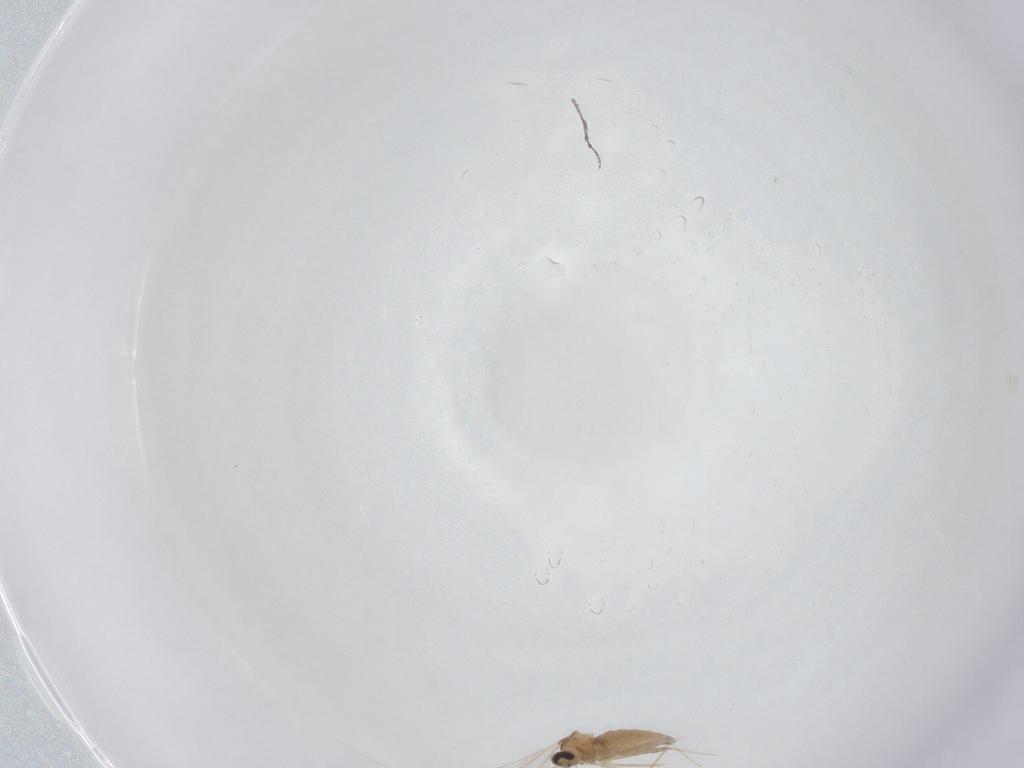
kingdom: Animalia
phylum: Arthropoda
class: Insecta
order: Diptera
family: Cecidomyiidae
